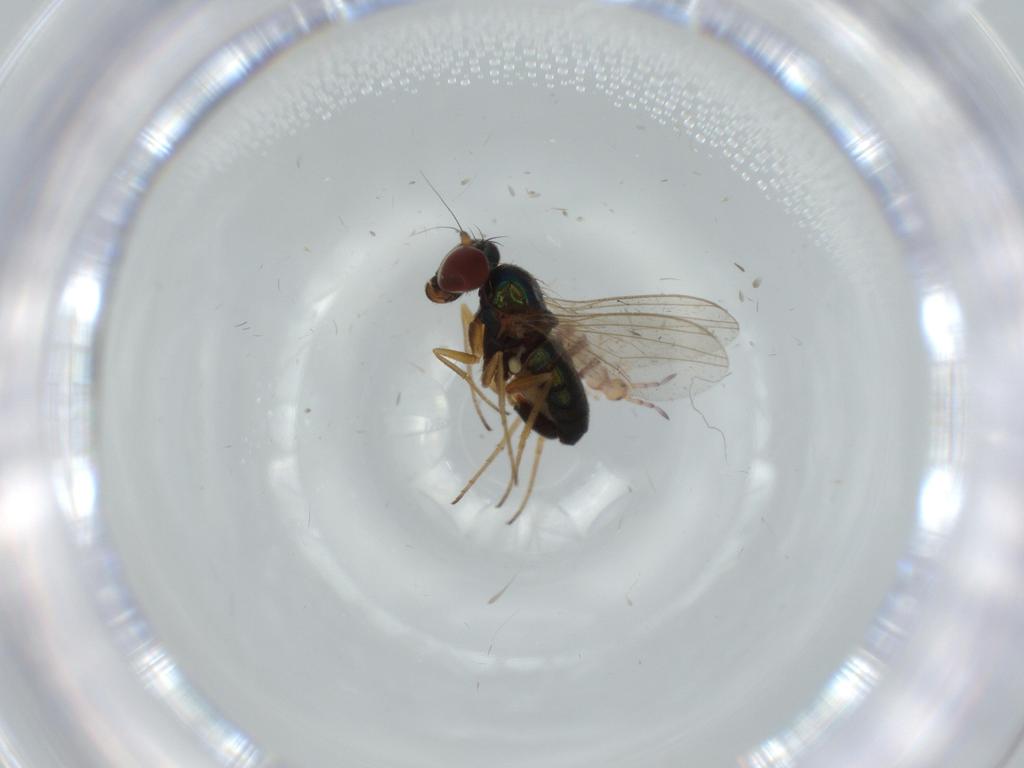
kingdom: Animalia
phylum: Arthropoda
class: Insecta
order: Diptera
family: Dolichopodidae
